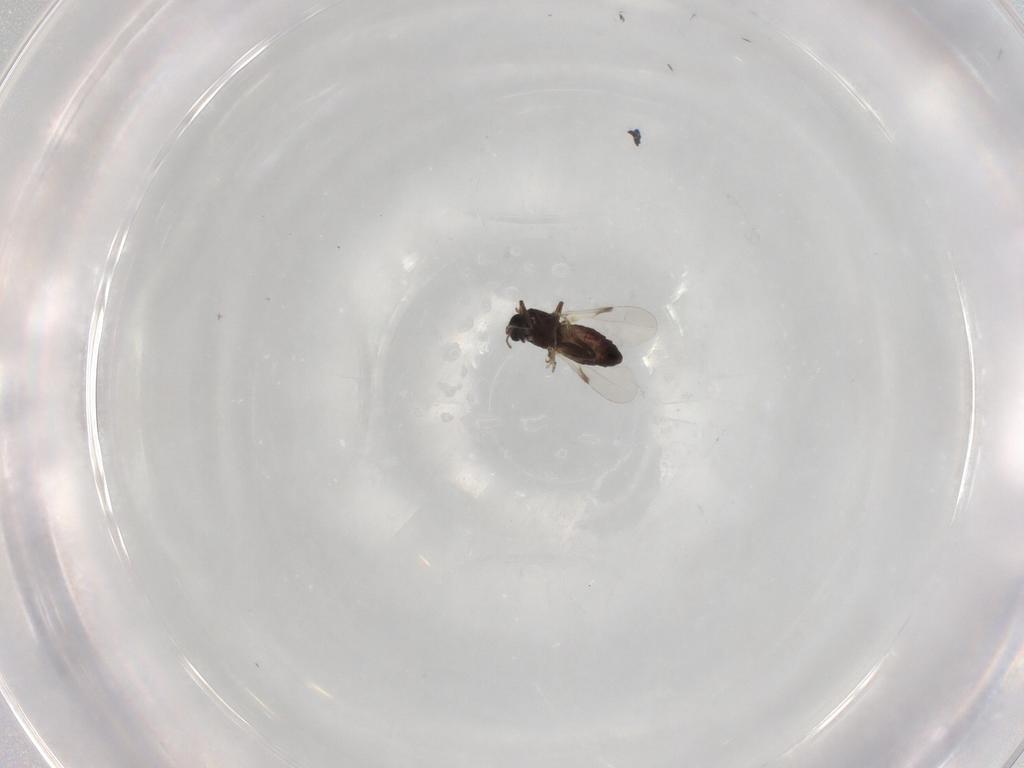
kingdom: Animalia
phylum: Arthropoda
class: Insecta
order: Diptera
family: Ceratopogonidae
